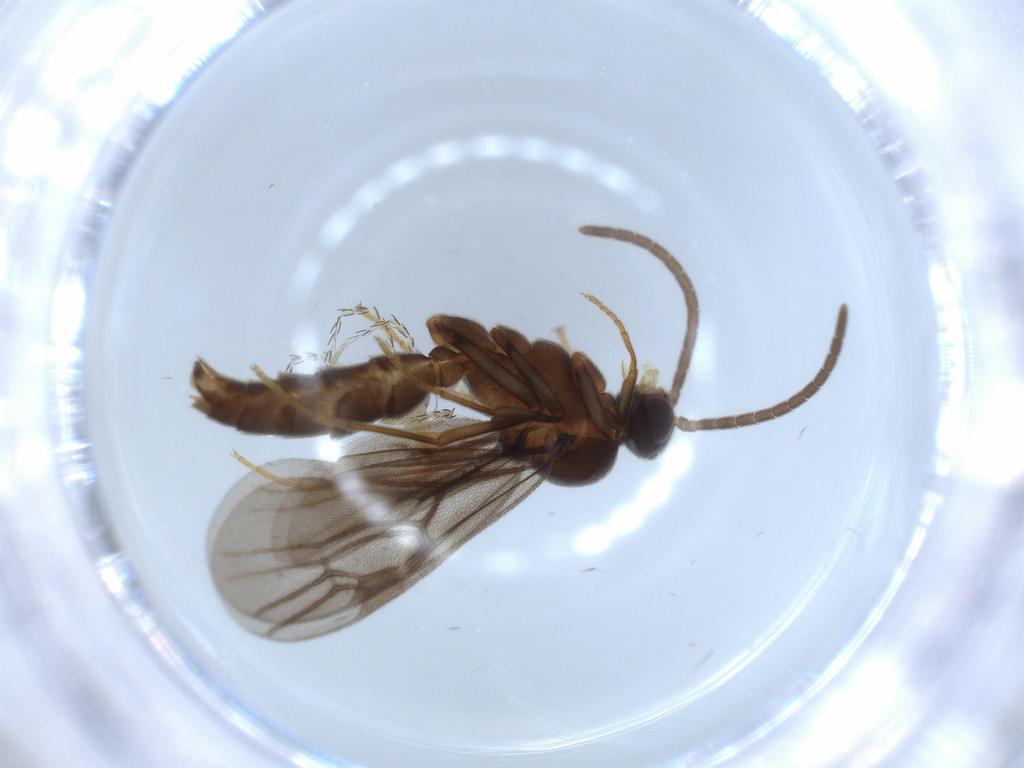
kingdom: Animalia
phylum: Arthropoda
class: Insecta
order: Hymenoptera
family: Formicidae
